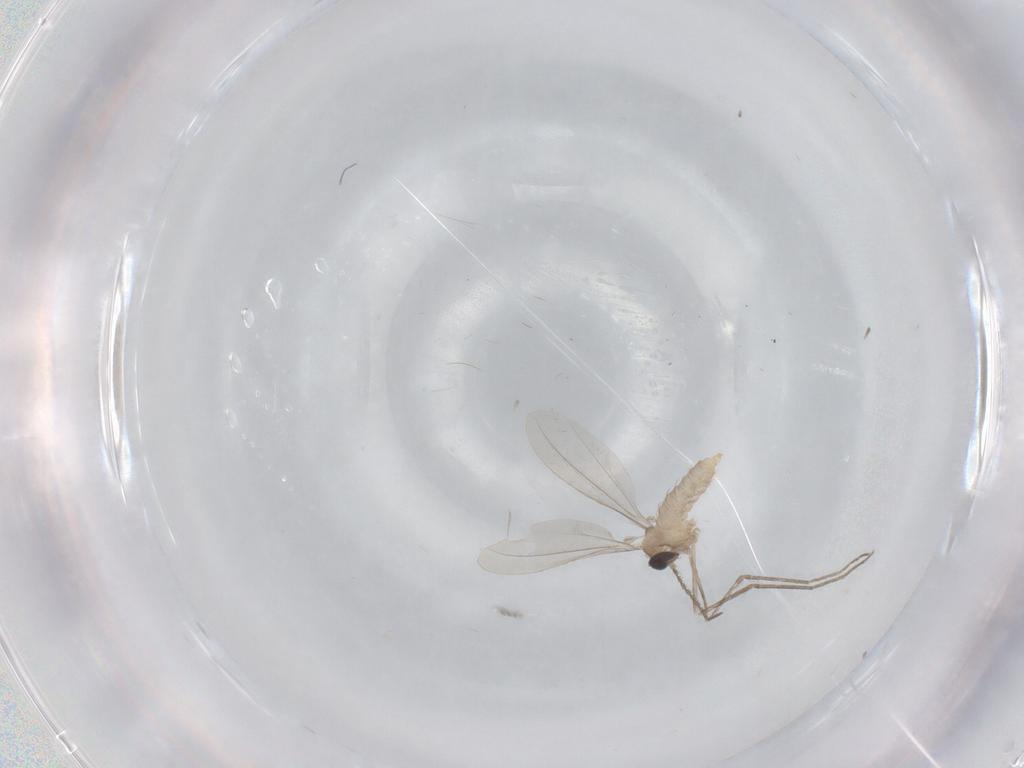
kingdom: Animalia
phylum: Arthropoda
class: Insecta
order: Diptera
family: Cecidomyiidae
